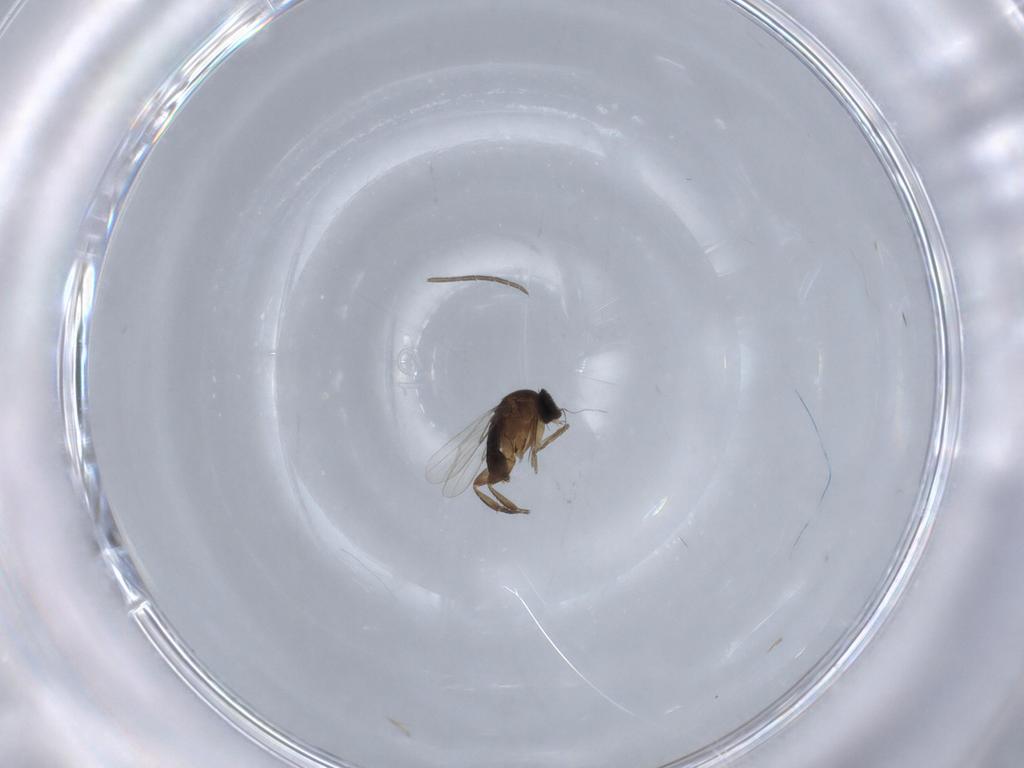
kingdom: Animalia
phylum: Arthropoda
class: Insecta
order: Diptera
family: Sciaridae
